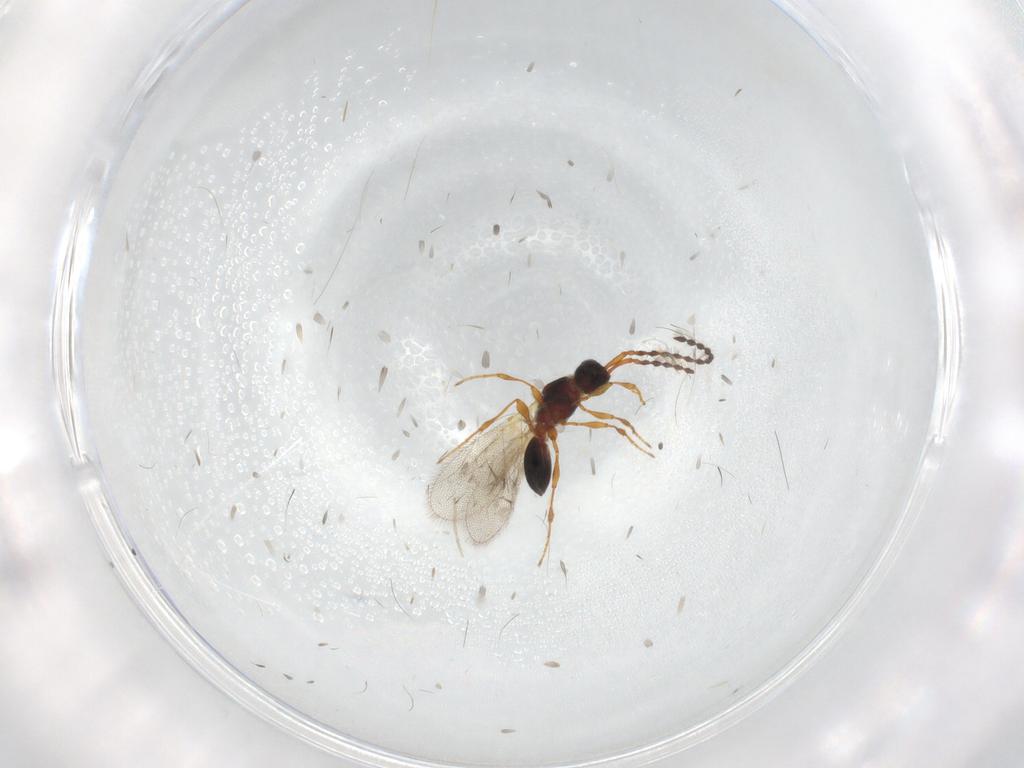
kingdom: Animalia
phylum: Arthropoda
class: Insecta
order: Hymenoptera
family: Diapriidae
